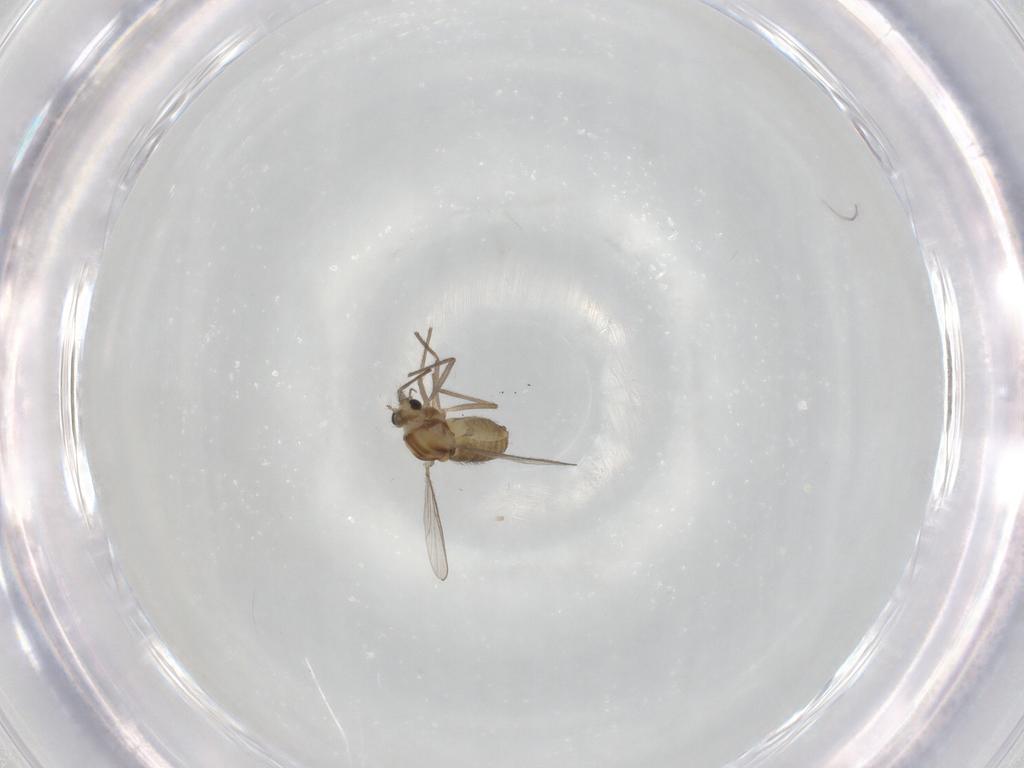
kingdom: Animalia
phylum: Arthropoda
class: Insecta
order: Diptera
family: Chironomidae
